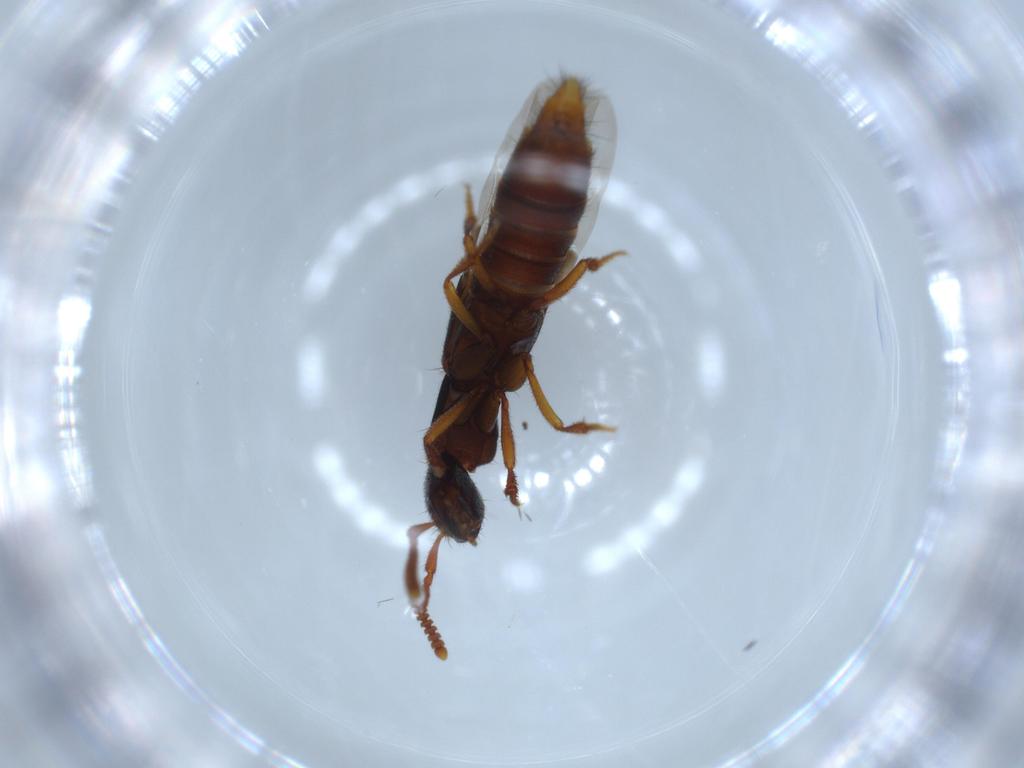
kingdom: Animalia
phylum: Arthropoda
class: Insecta
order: Coleoptera
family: Staphylinidae
